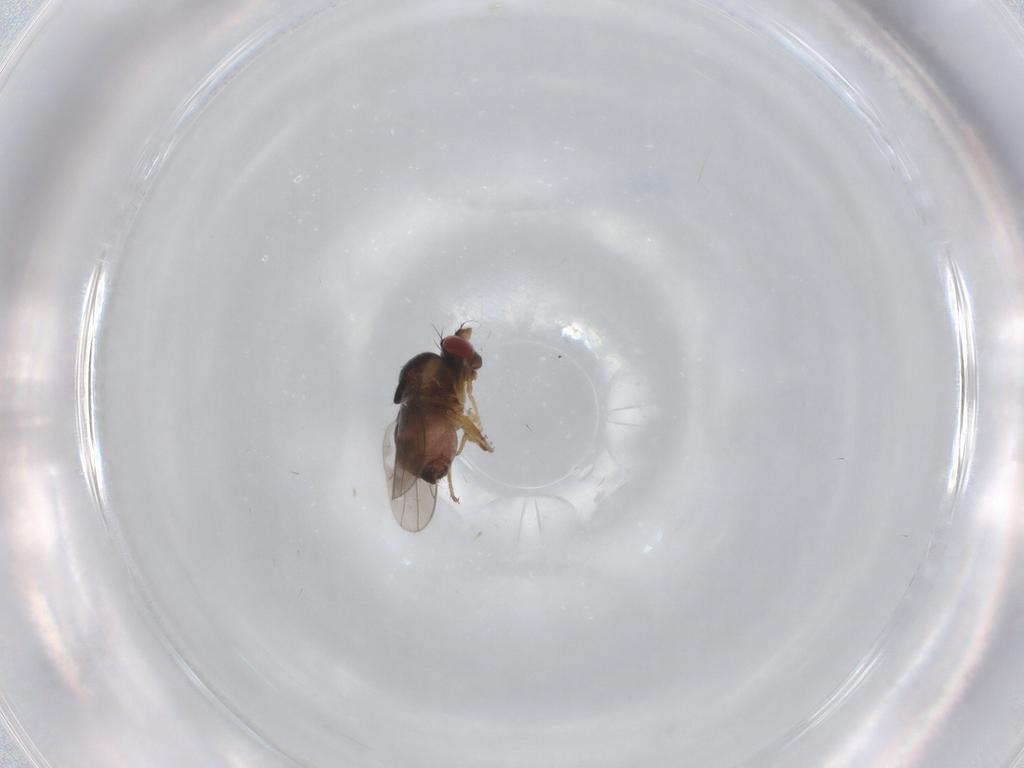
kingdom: Animalia
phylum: Arthropoda
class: Insecta
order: Diptera
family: Ephydridae
